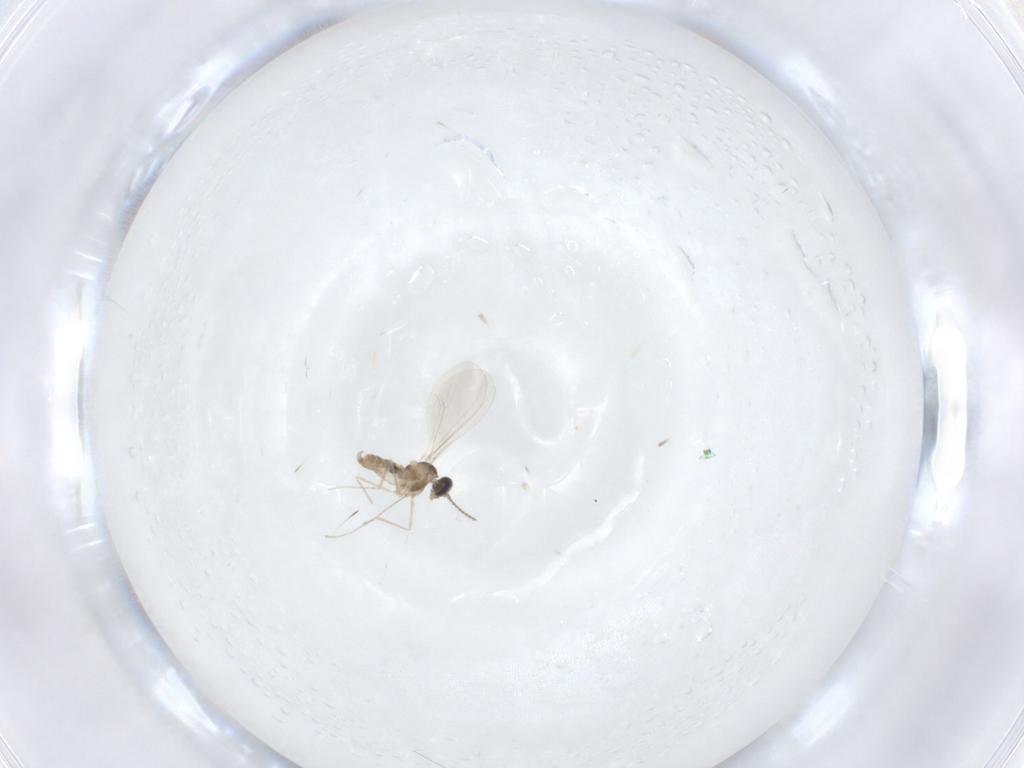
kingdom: Animalia
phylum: Arthropoda
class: Insecta
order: Diptera
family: Cecidomyiidae
